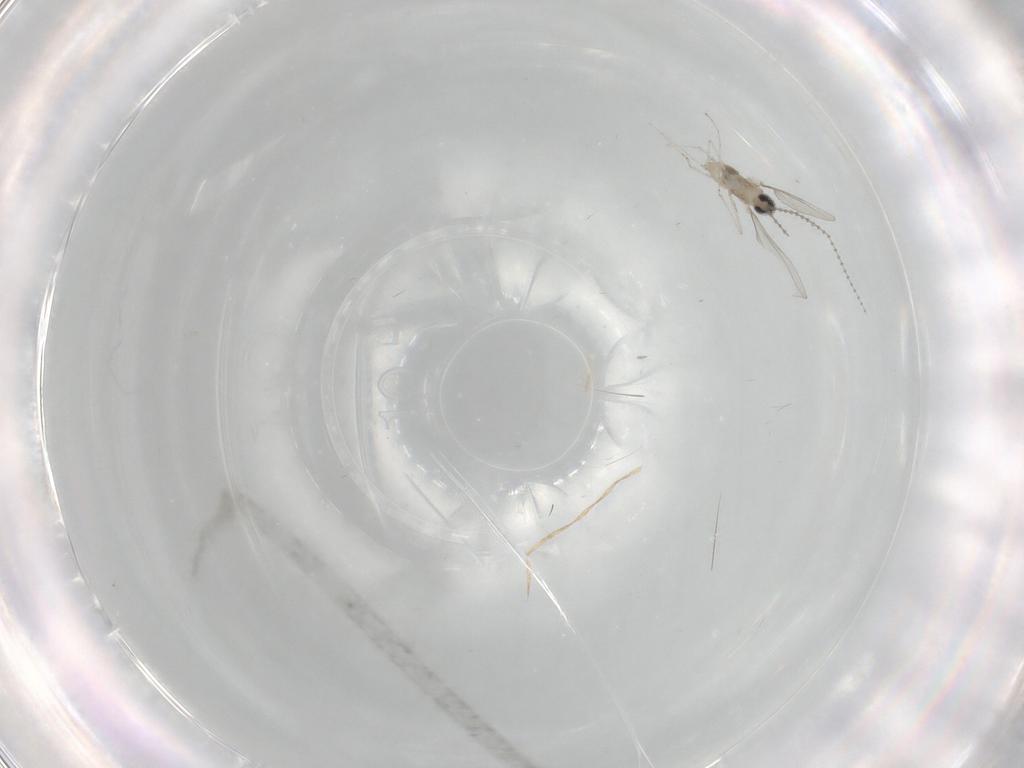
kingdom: Animalia
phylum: Arthropoda
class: Insecta
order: Diptera
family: Cecidomyiidae
